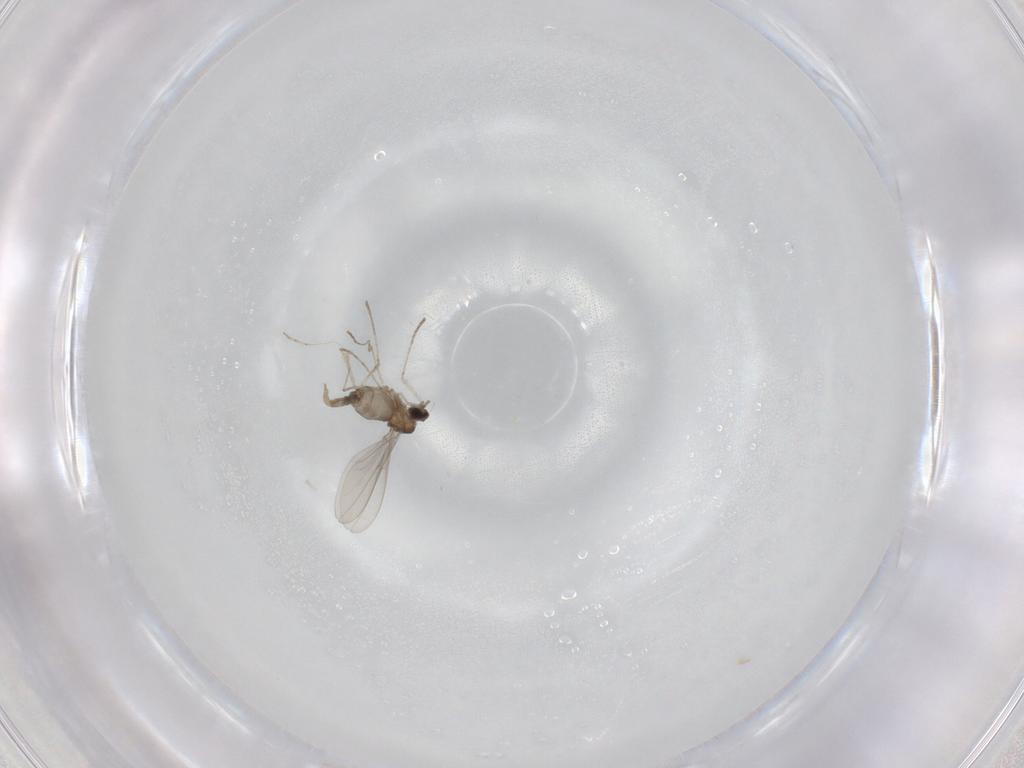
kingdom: Animalia
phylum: Arthropoda
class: Insecta
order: Diptera
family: Cecidomyiidae
